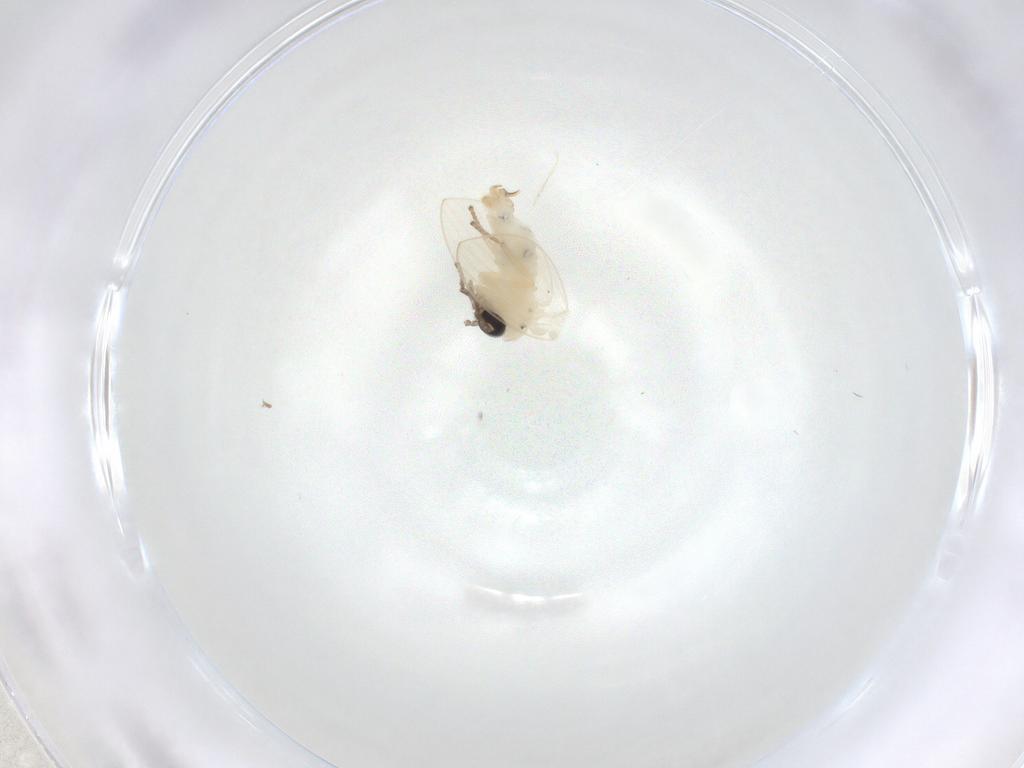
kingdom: Animalia
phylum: Arthropoda
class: Insecta
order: Diptera
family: Psychodidae
